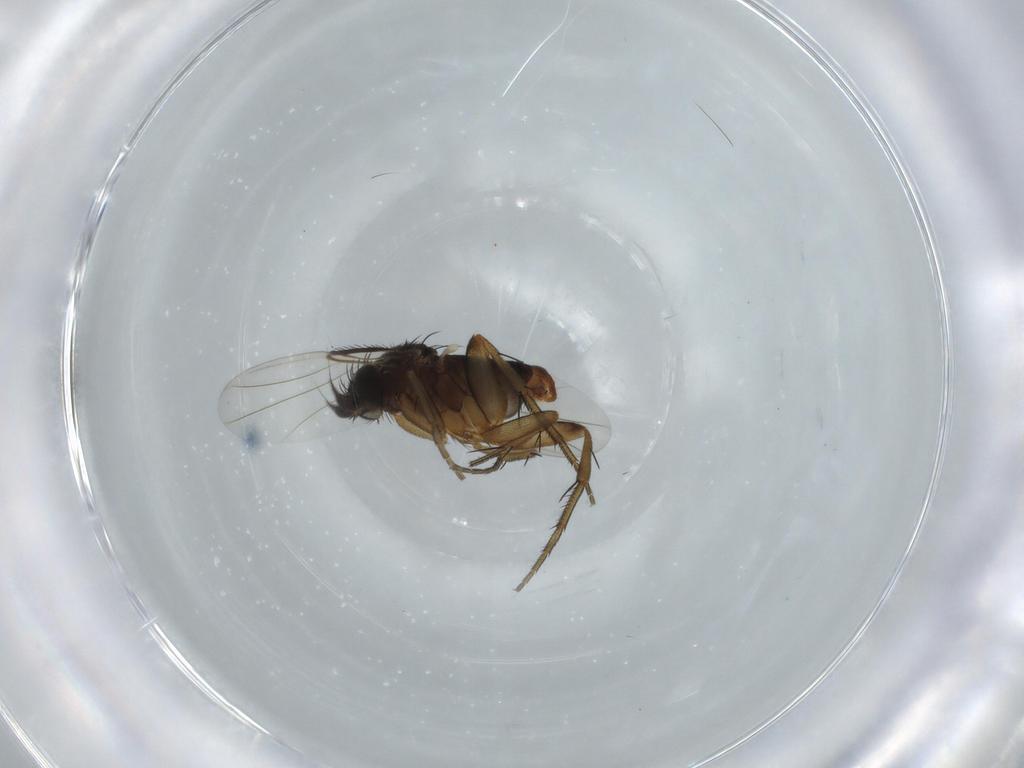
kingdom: Animalia
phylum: Arthropoda
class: Insecta
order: Diptera
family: Phoridae
